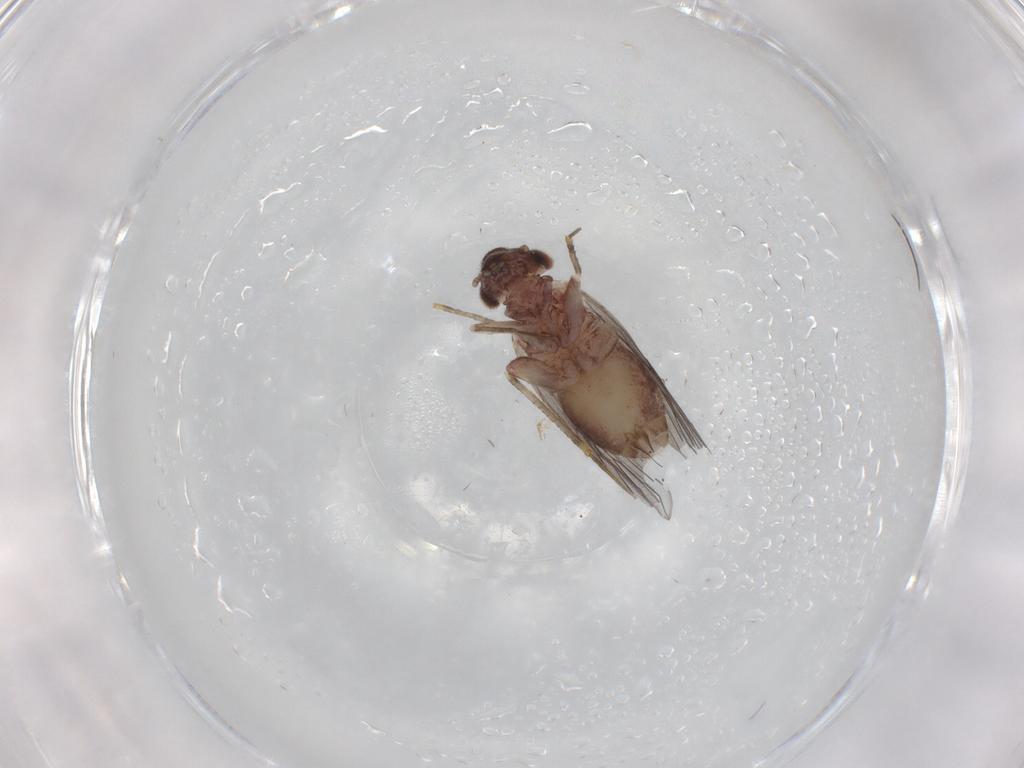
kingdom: Animalia
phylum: Arthropoda
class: Insecta
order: Psocodea
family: Lepidopsocidae
